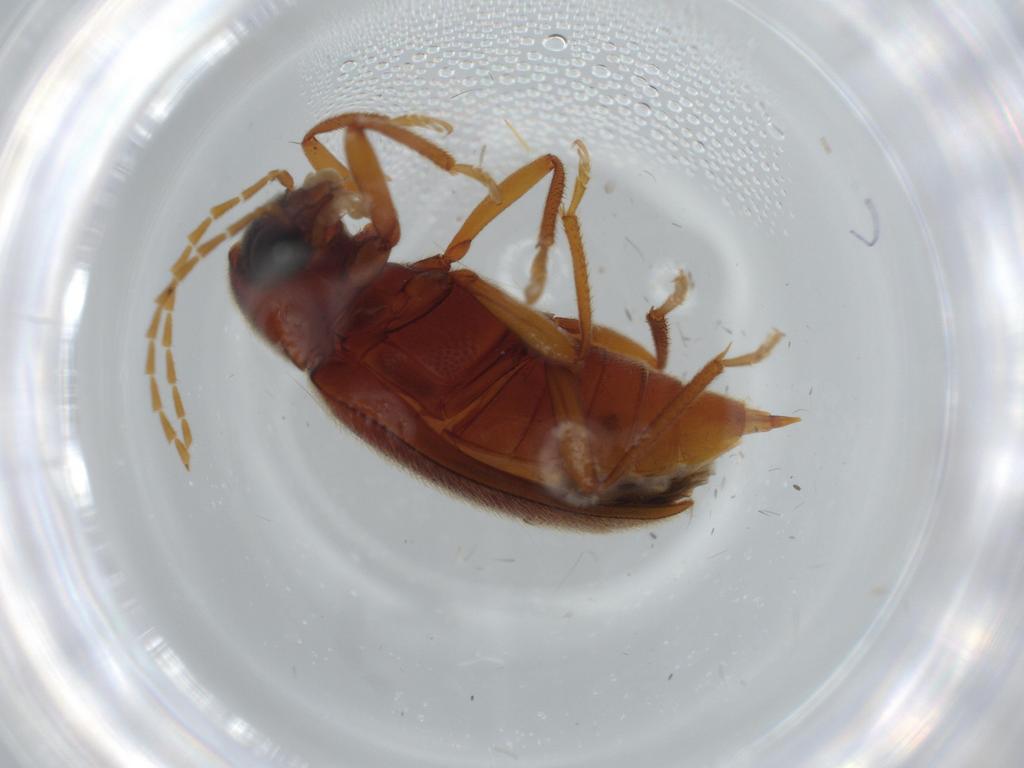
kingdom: Animalia
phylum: Arthropoda
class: Insecta
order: Coleoptera
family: Ptilodactylidae
